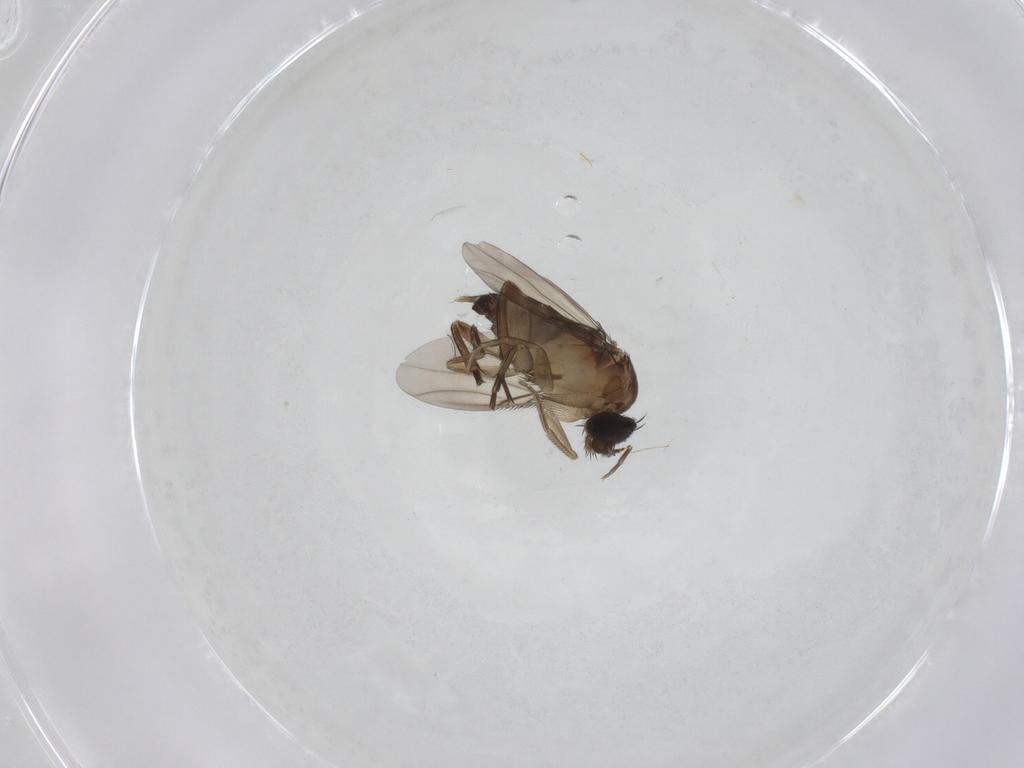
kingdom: Animalia
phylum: Arthropoda
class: Insecta
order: Diptera
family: Phoridae
